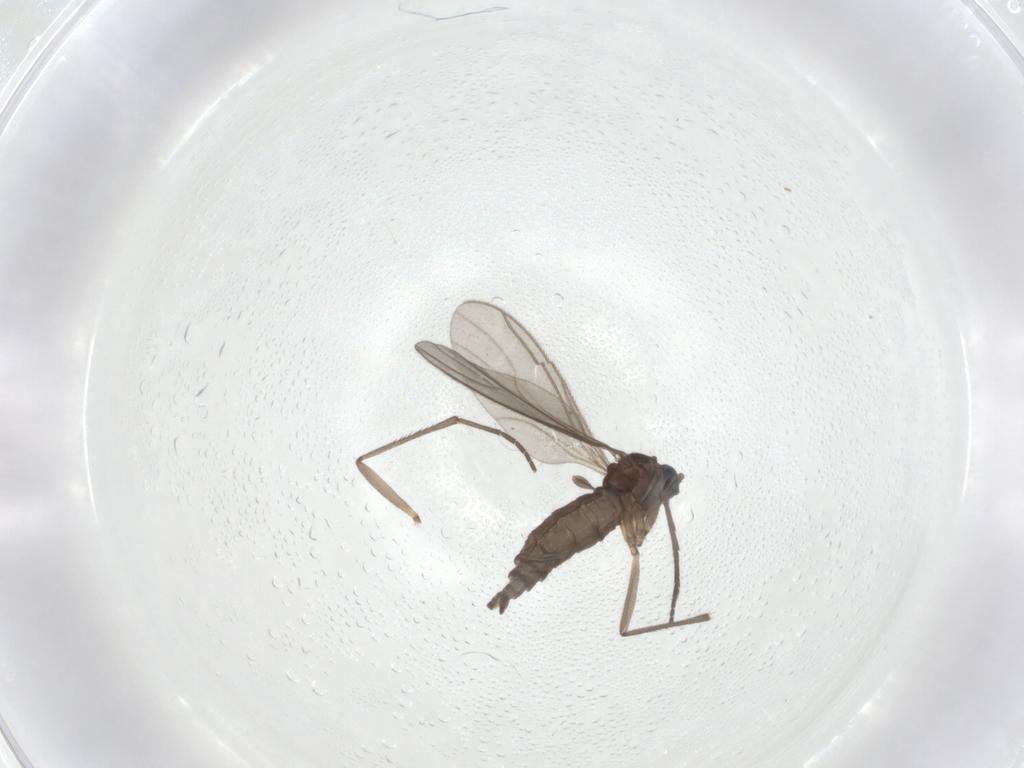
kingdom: Animalia
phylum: Arthropoda
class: Insecta
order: Diptera
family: Sciaridae
